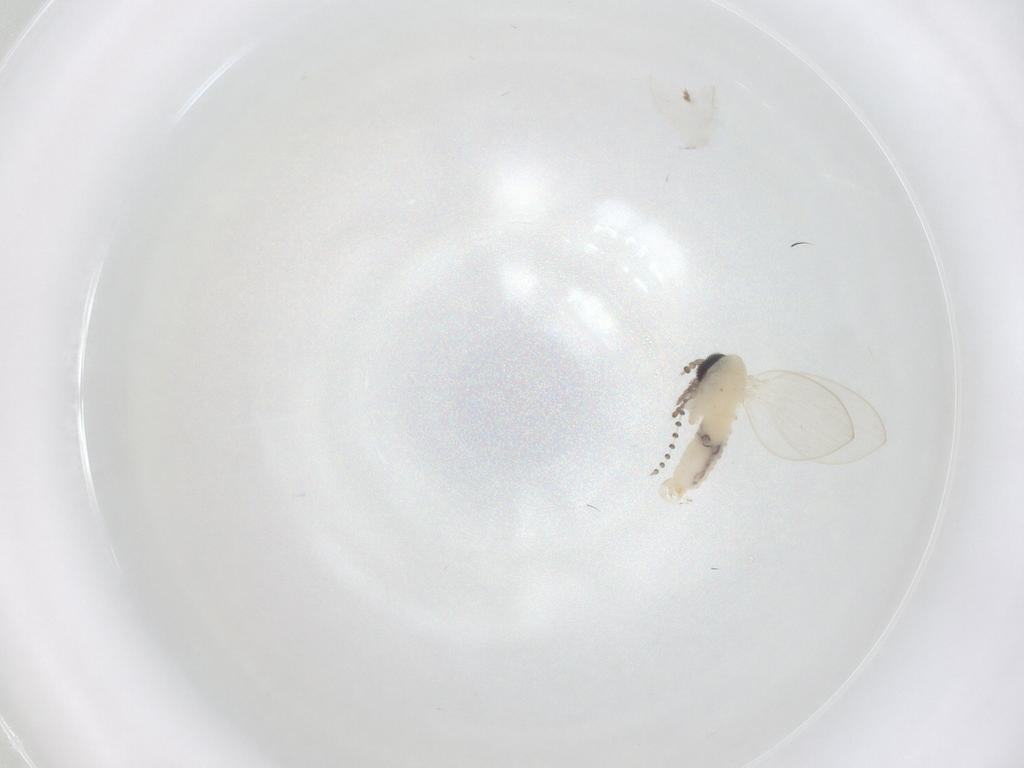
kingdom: Animalia
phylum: Arthropoda
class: Insecta
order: Diptera
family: Psychodidae
